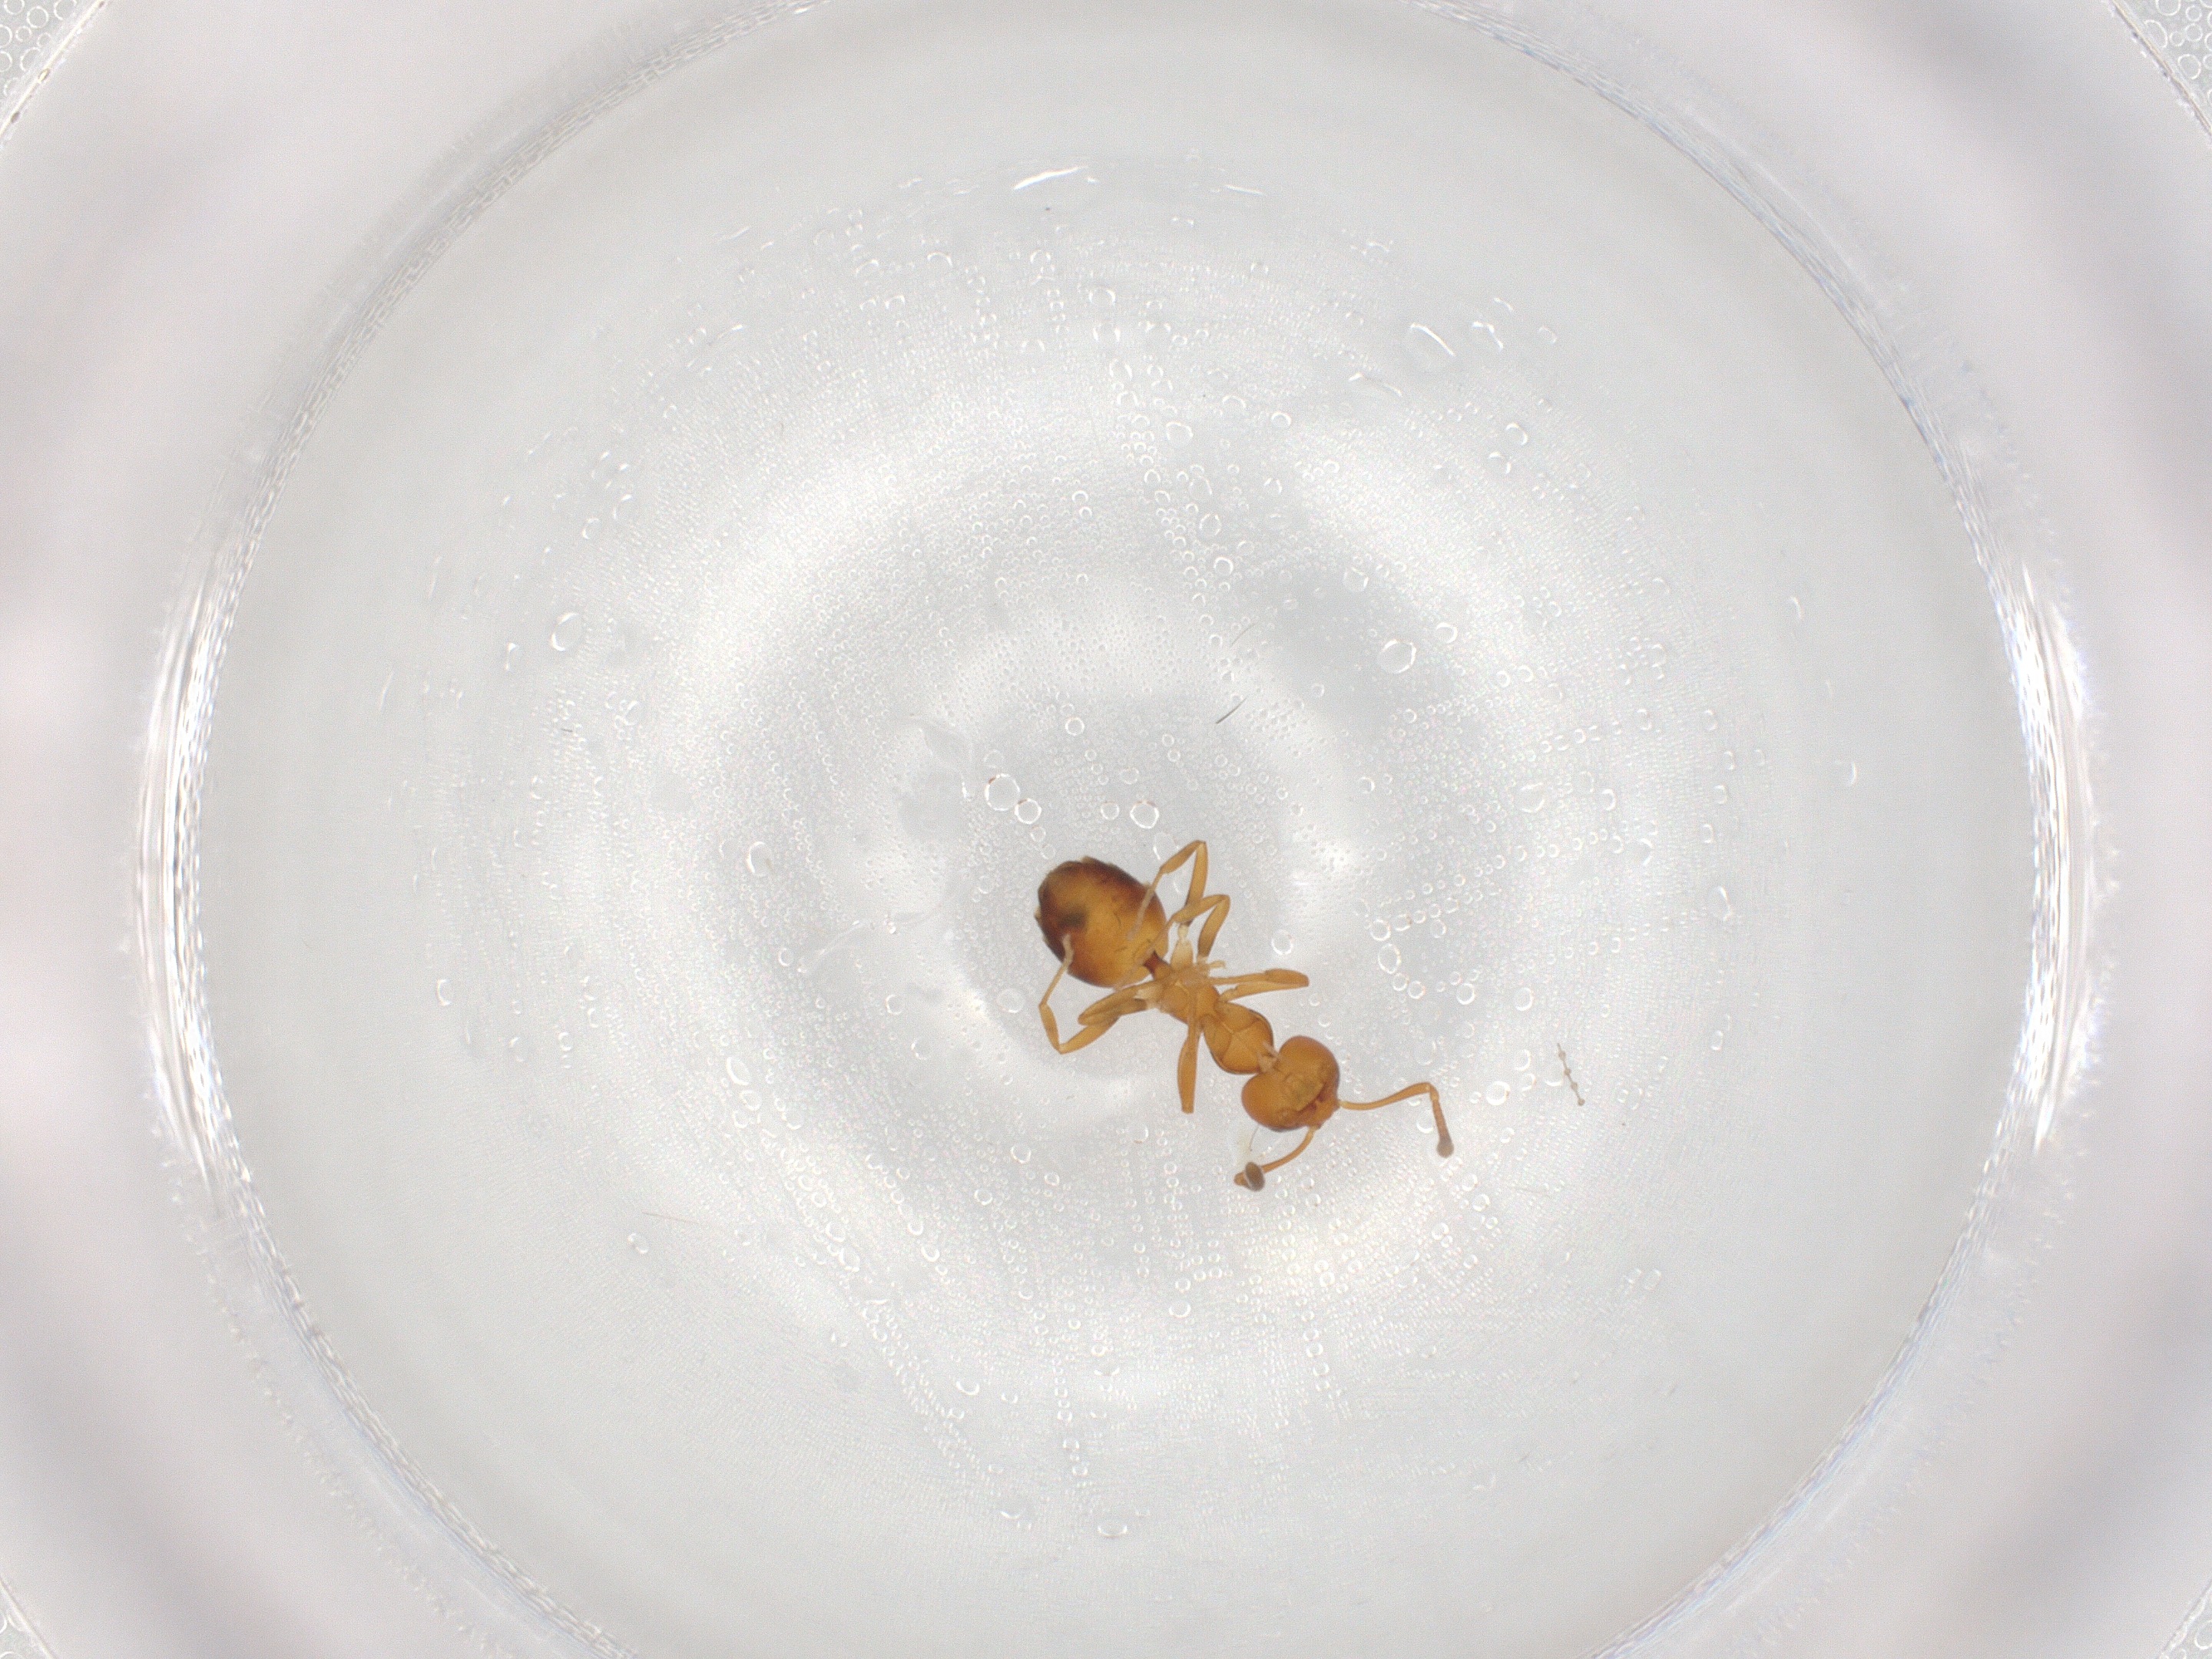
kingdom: Animalia
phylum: Arthropoda
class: Insecta
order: Hymenoptera
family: Formicidae
